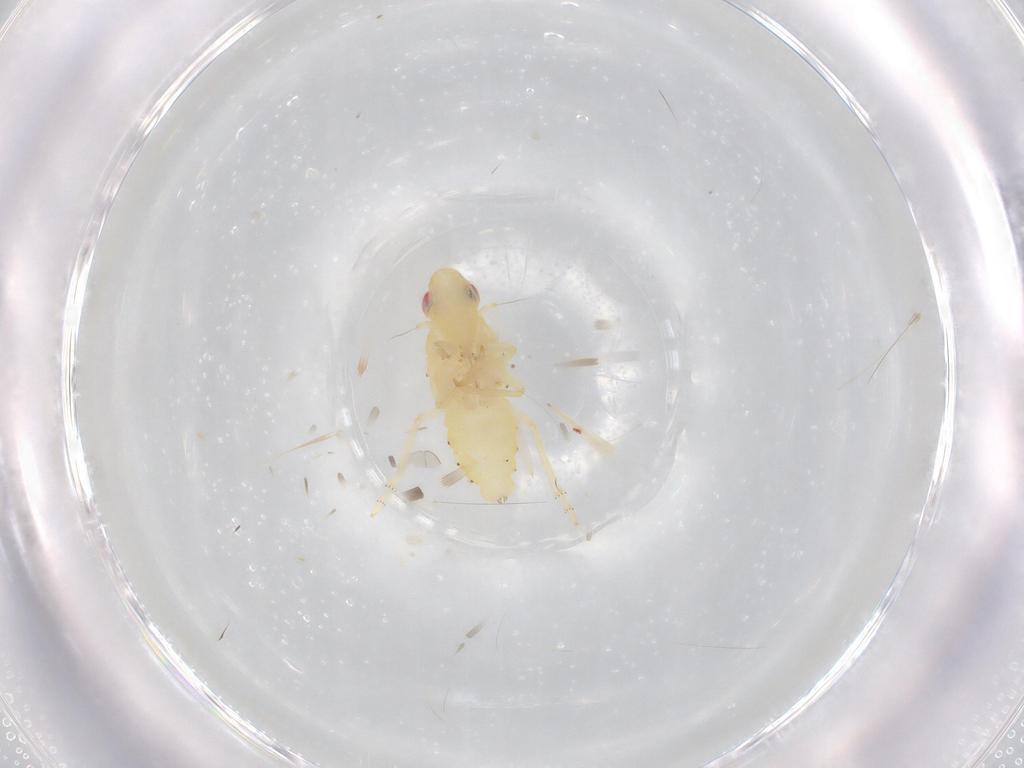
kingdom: Animalia
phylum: Arthropoda
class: Insecta
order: Hemiptera
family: Tropiduchidae
